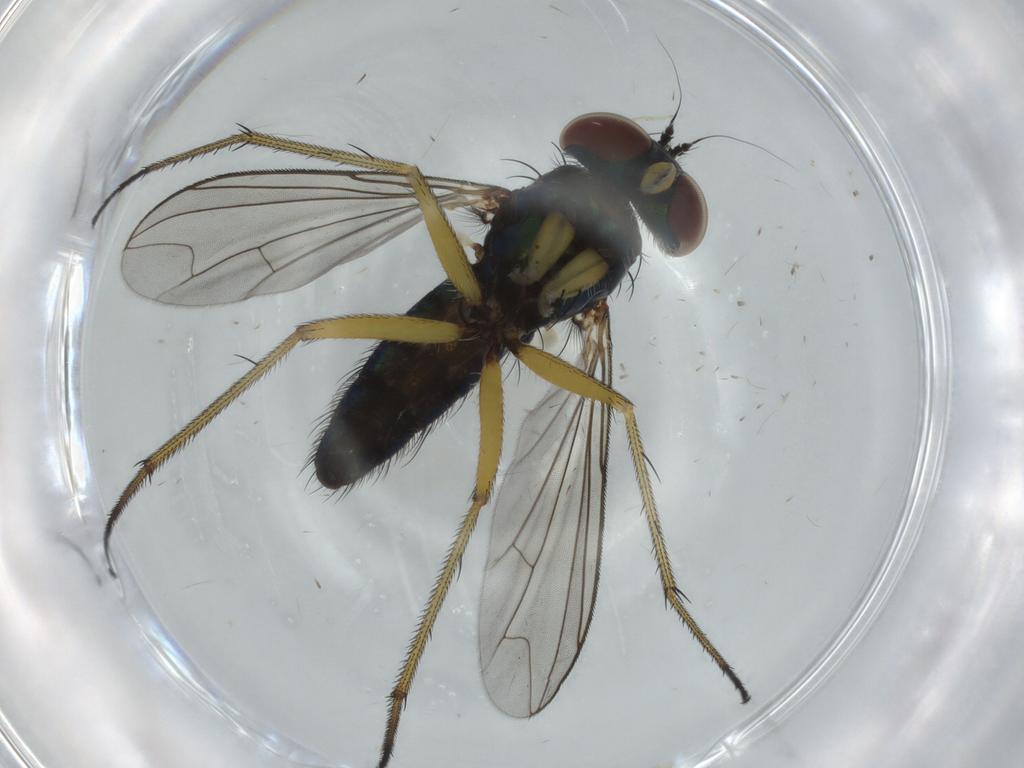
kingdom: Animalia
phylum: Arthropoda
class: Insecta
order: Diptera
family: Dolichopodidae
